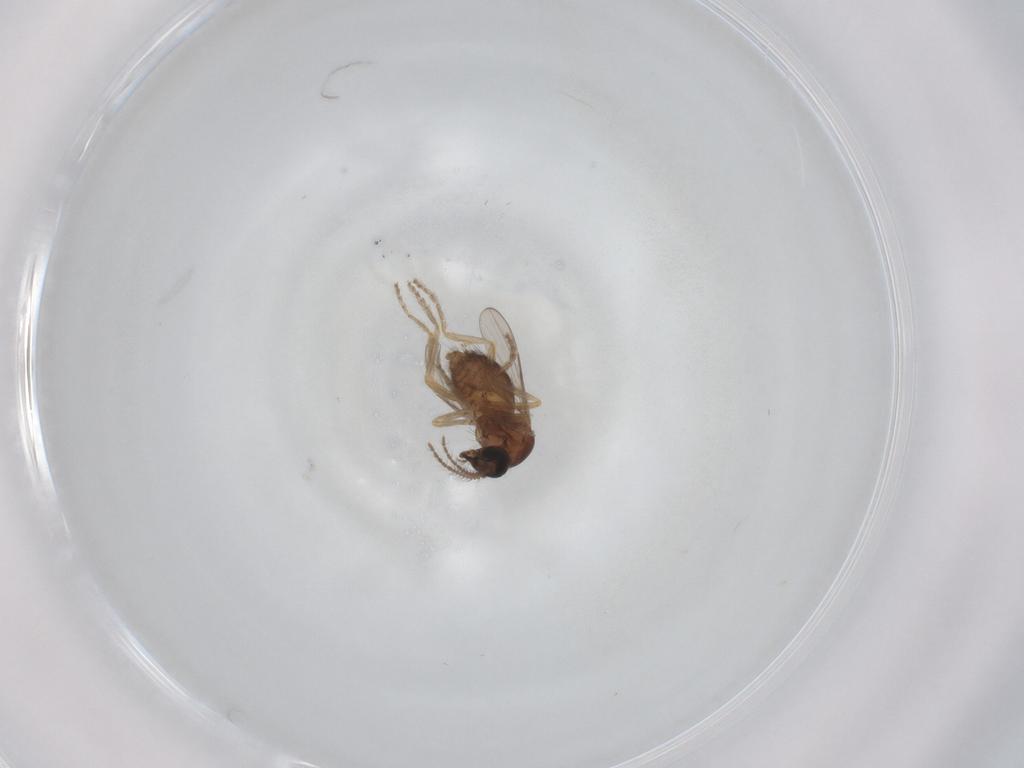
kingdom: Animalia
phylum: Arthropoda
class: Insecta
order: Diptera
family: Ceratopogonidae
